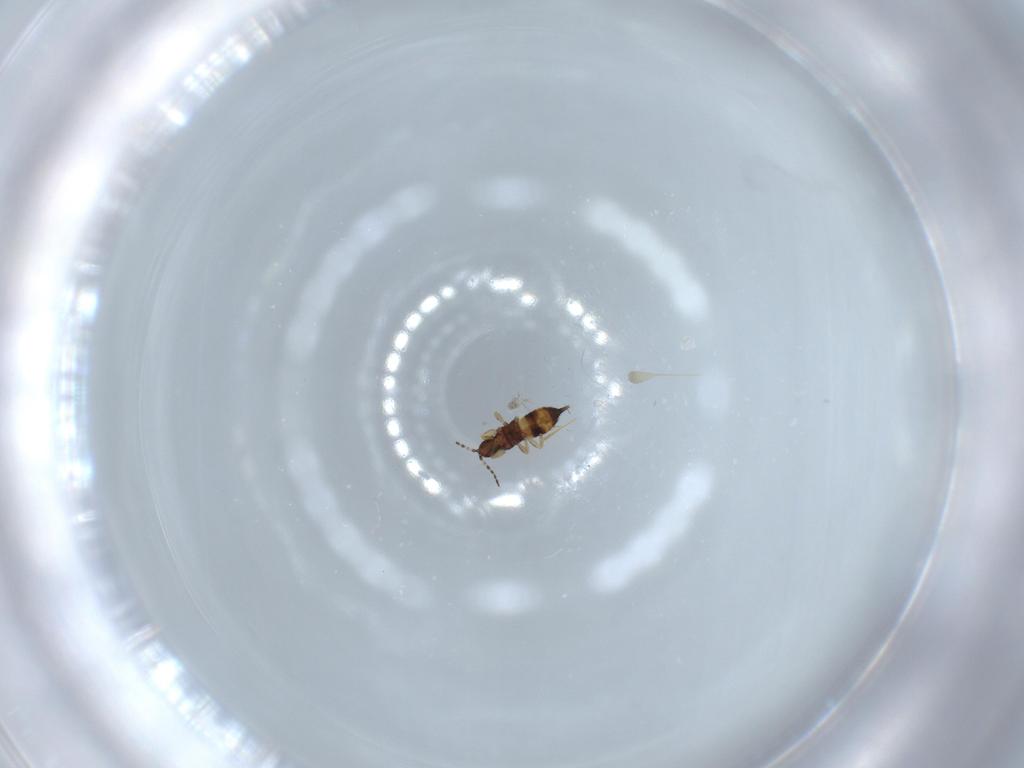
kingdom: Animalia
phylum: Arthropoda
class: Insecta
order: Thysanoptera
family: Phlaeothripidae
